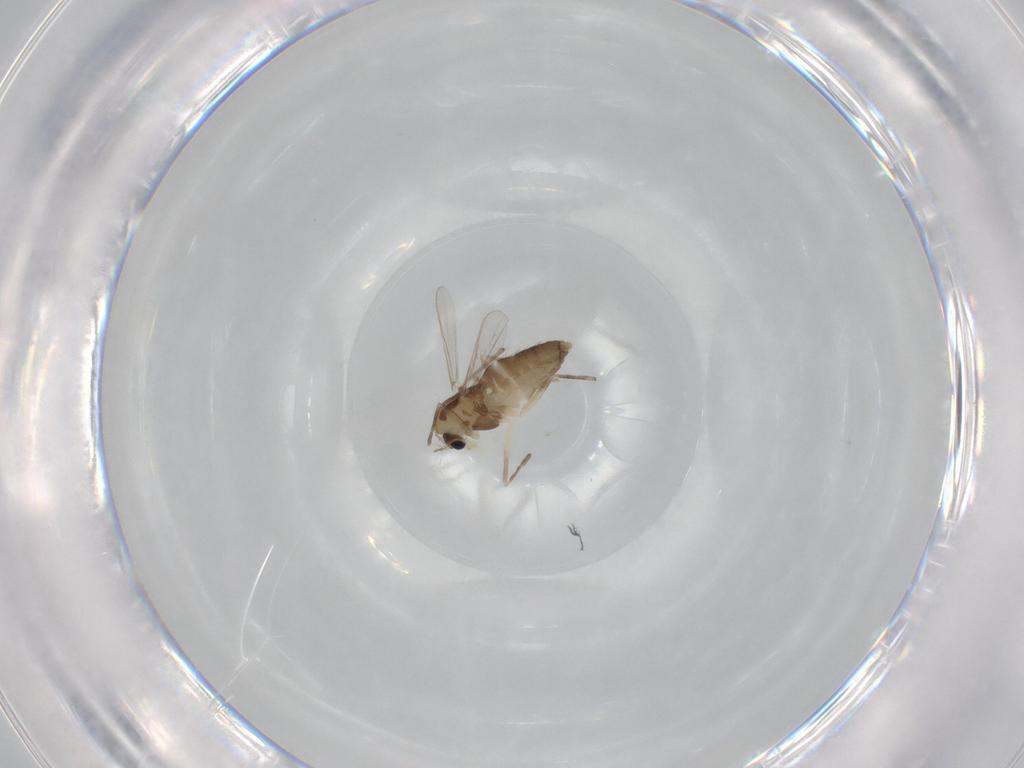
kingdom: Animalia
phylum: Arthropoda
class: Insecta
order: Diptera
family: Chironomidae
